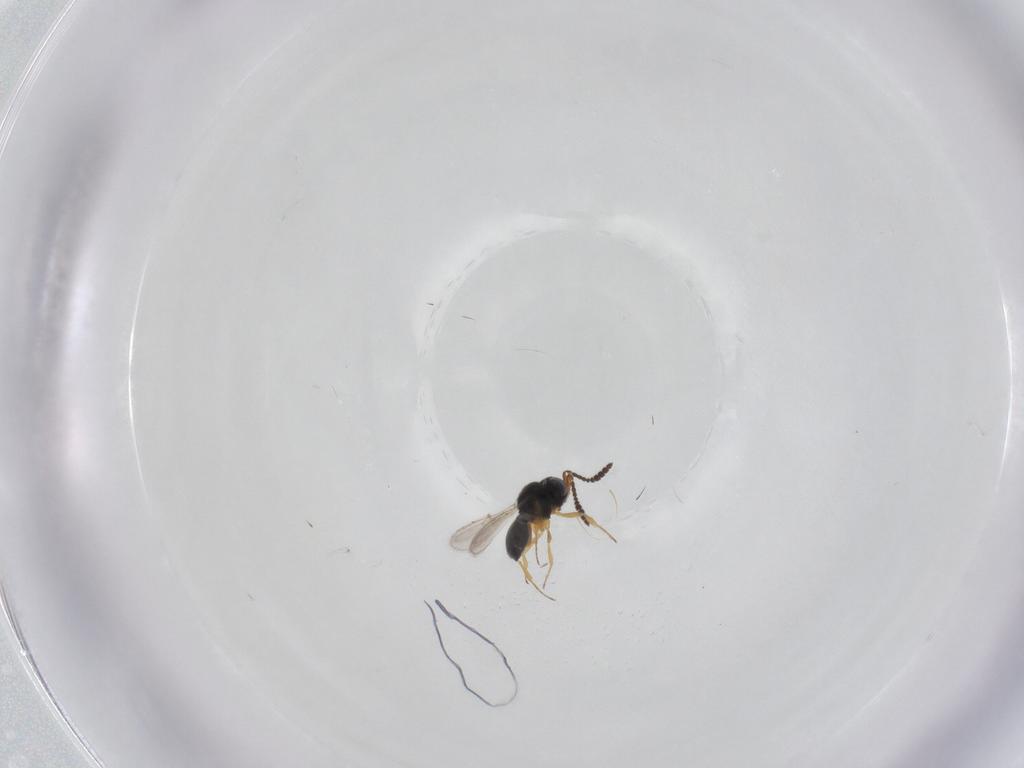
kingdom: Animalia
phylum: Arthropoda
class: Insecta
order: Hymenoptera
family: Scelionidae
